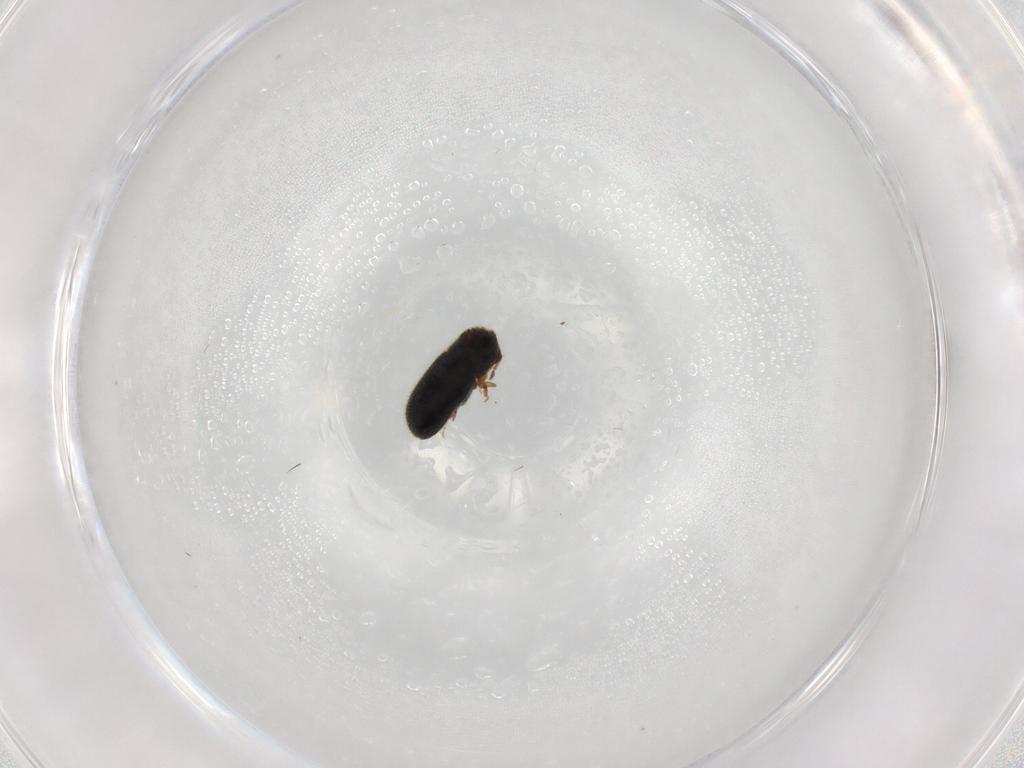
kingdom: Animalia
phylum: Arthropoda
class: Insecta
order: Coleoptera
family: Curculionidae
